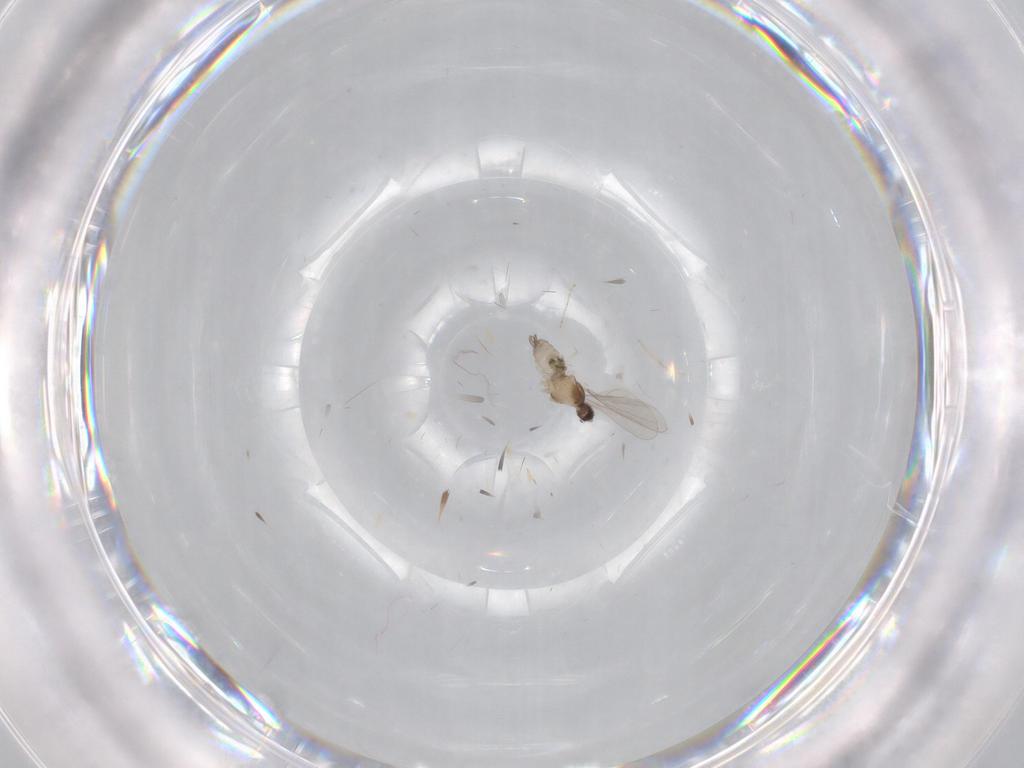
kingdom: Animalia
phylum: Arthropoda
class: Insecta
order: Diptera
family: Cecidomyiidae
